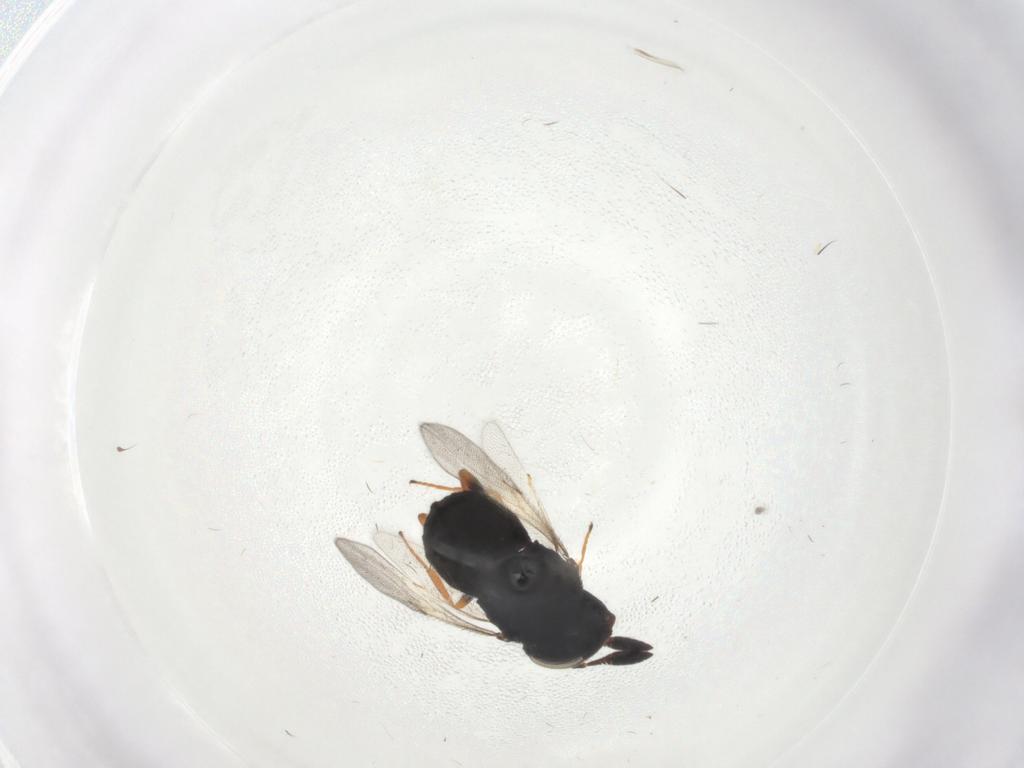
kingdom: Animalia
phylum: Arthropoda
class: Insecta
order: Hymenoptera
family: Scelionidae
